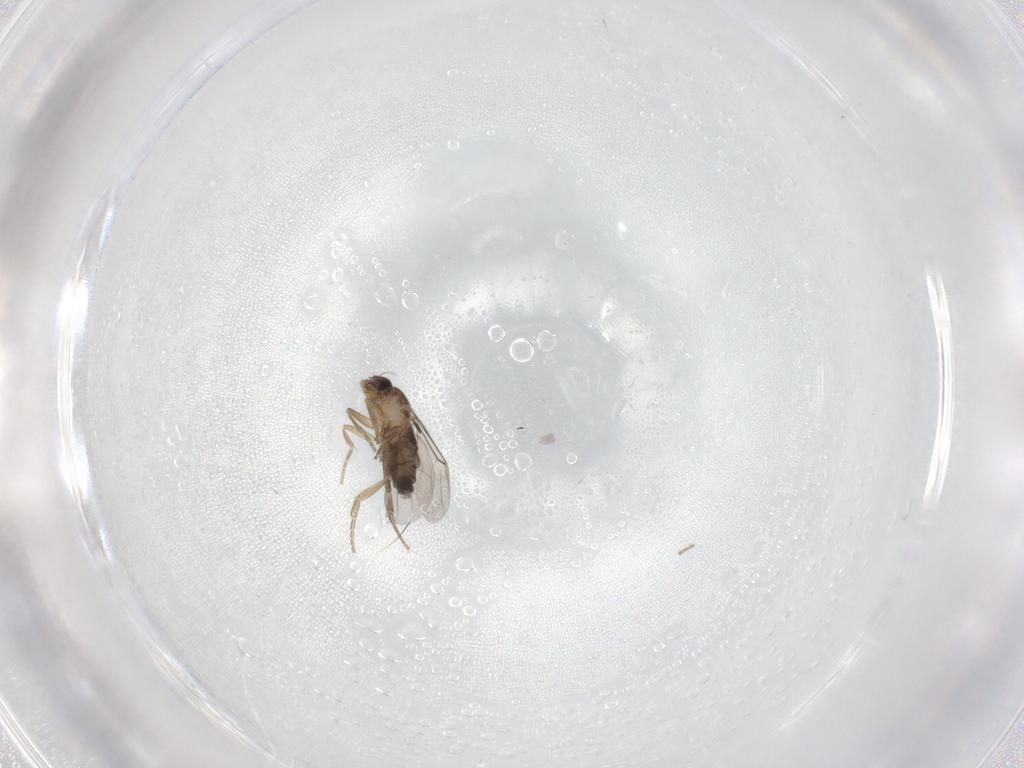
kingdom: Animalia
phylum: Arthropoda
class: Insecta
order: Diptera
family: Phoridae
